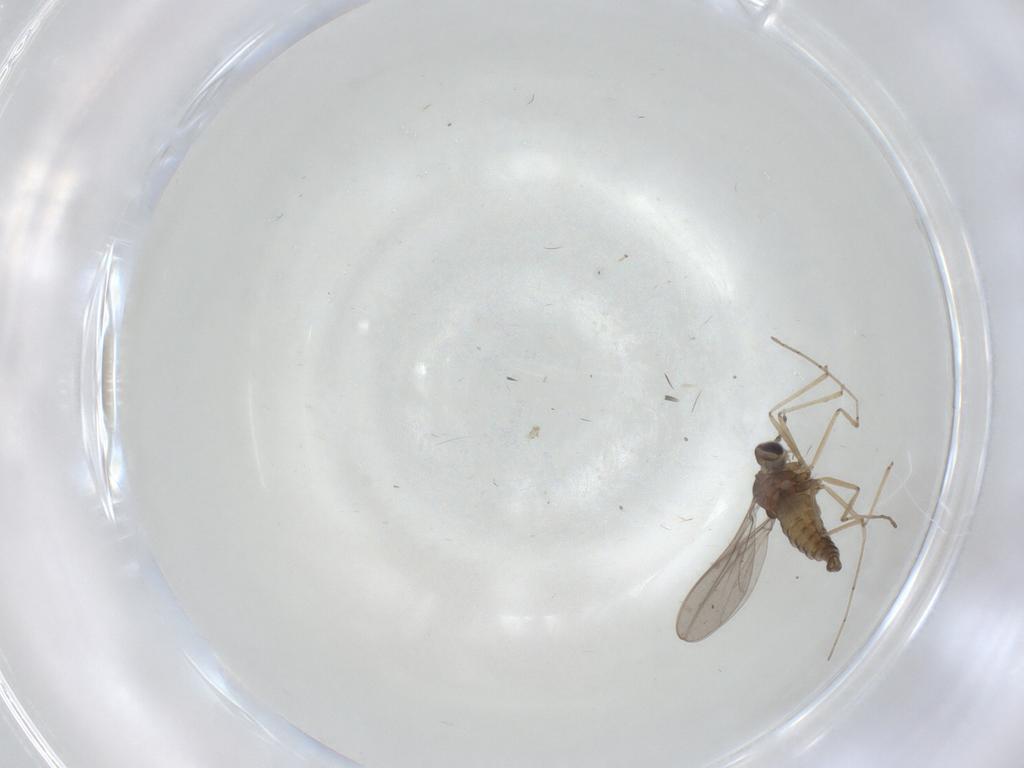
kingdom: Animalia
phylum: Arthropoda
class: Insecta
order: Diptera
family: Cecidomyiidae
